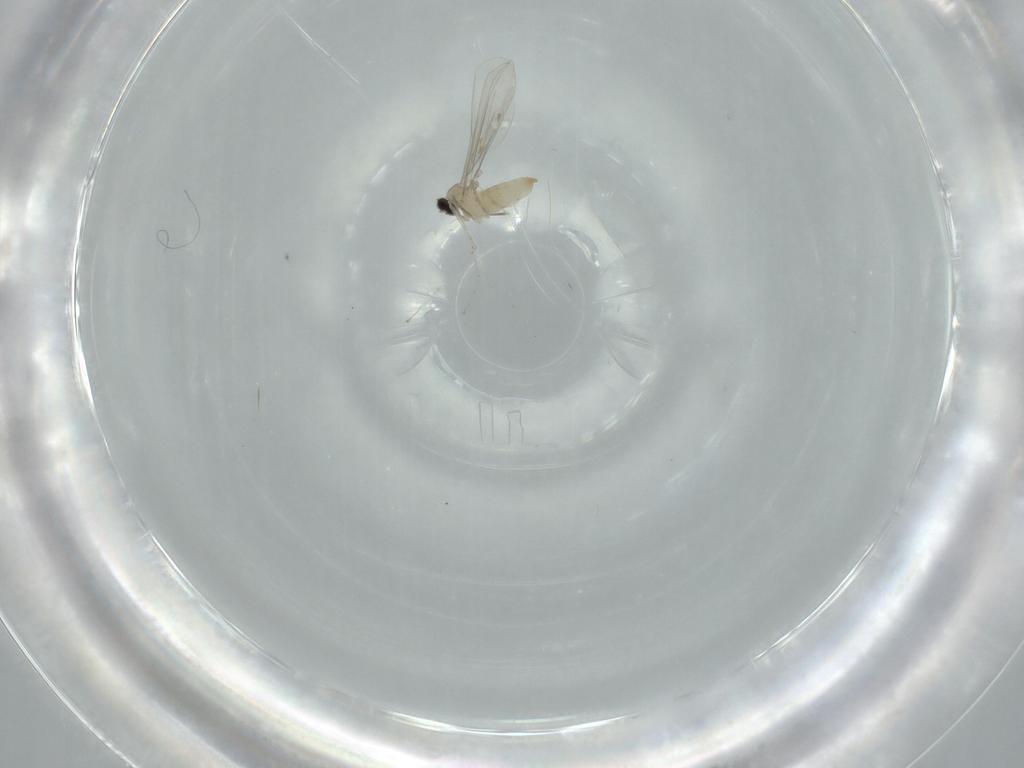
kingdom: Animalia
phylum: Arthropoda
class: Insecta
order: Diptera
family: Cecidomyiidae
